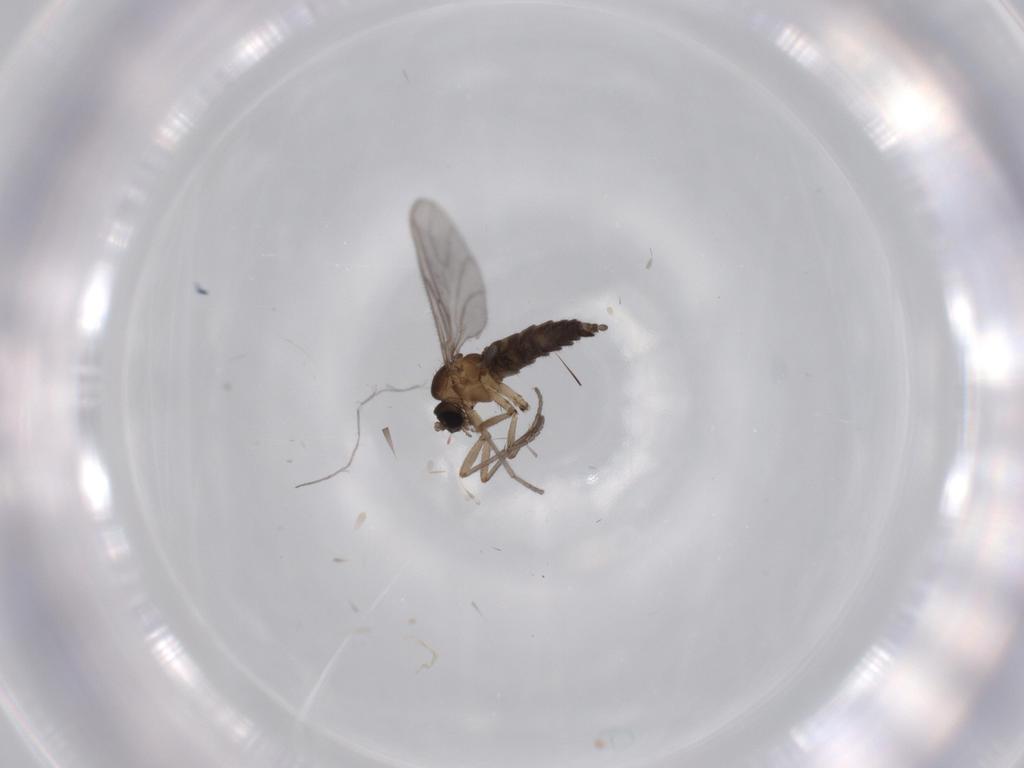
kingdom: Animalia
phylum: Arthropoda
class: Insecta
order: Diptera
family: Sciaridae
